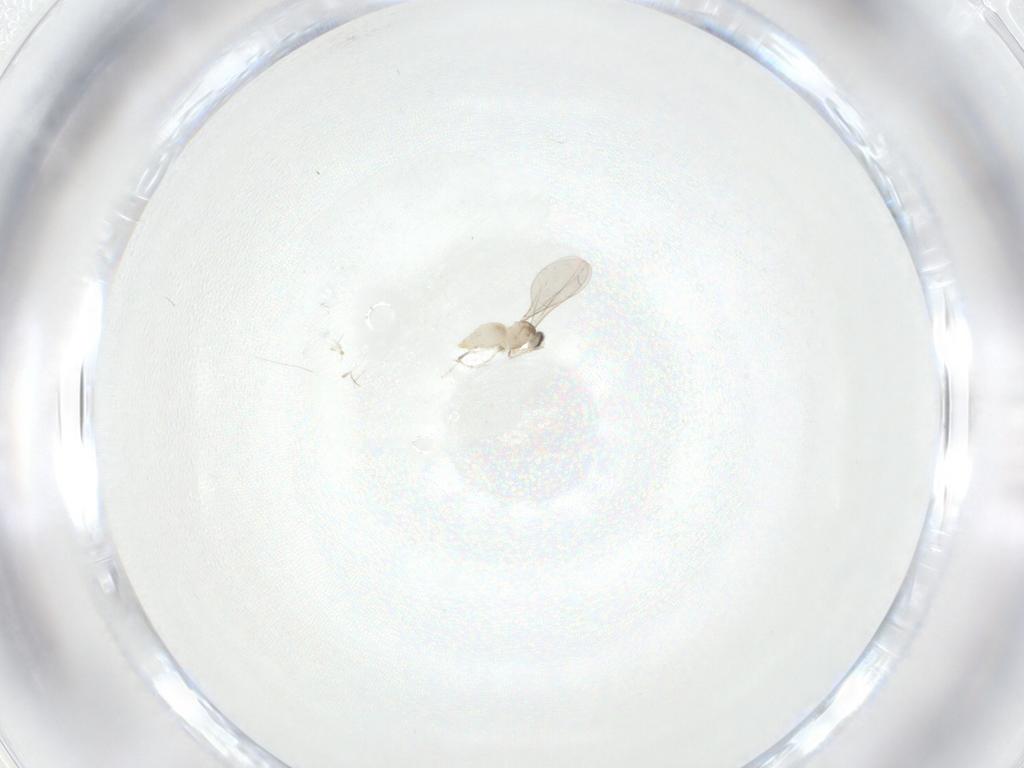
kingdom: Animalia
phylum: Arthropoda
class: Insecta
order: Diptera
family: Cecidomyiidae
